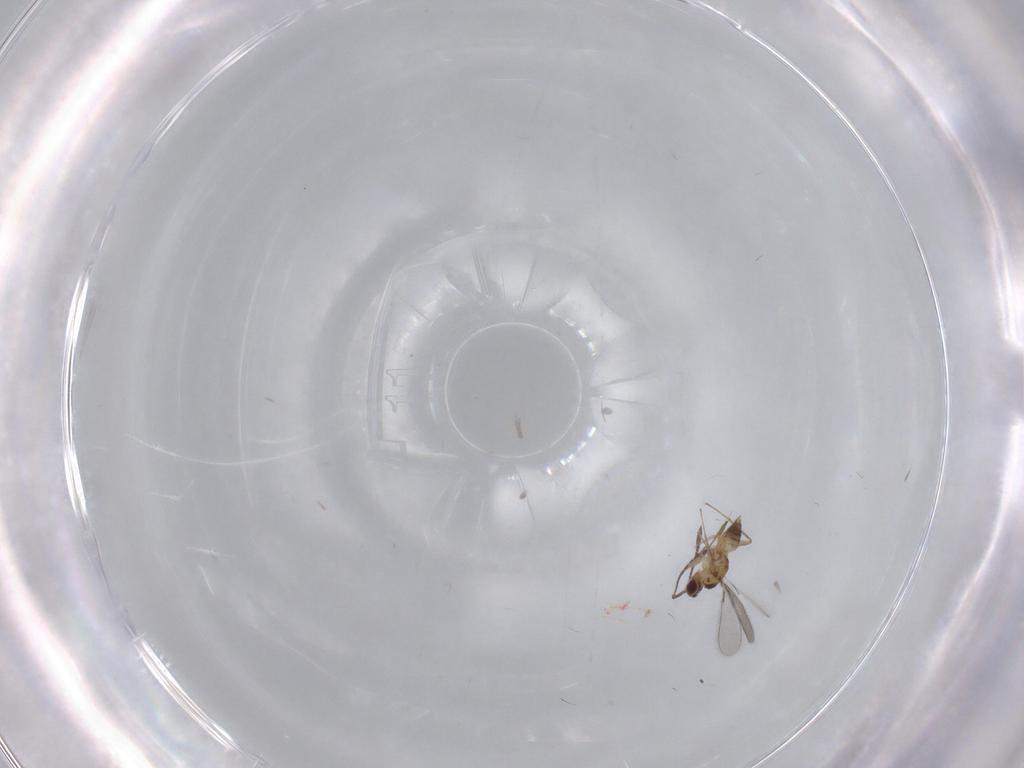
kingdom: Animalia
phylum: Arthropoda
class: Insecta
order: Hymenoptera
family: Mymaridae
